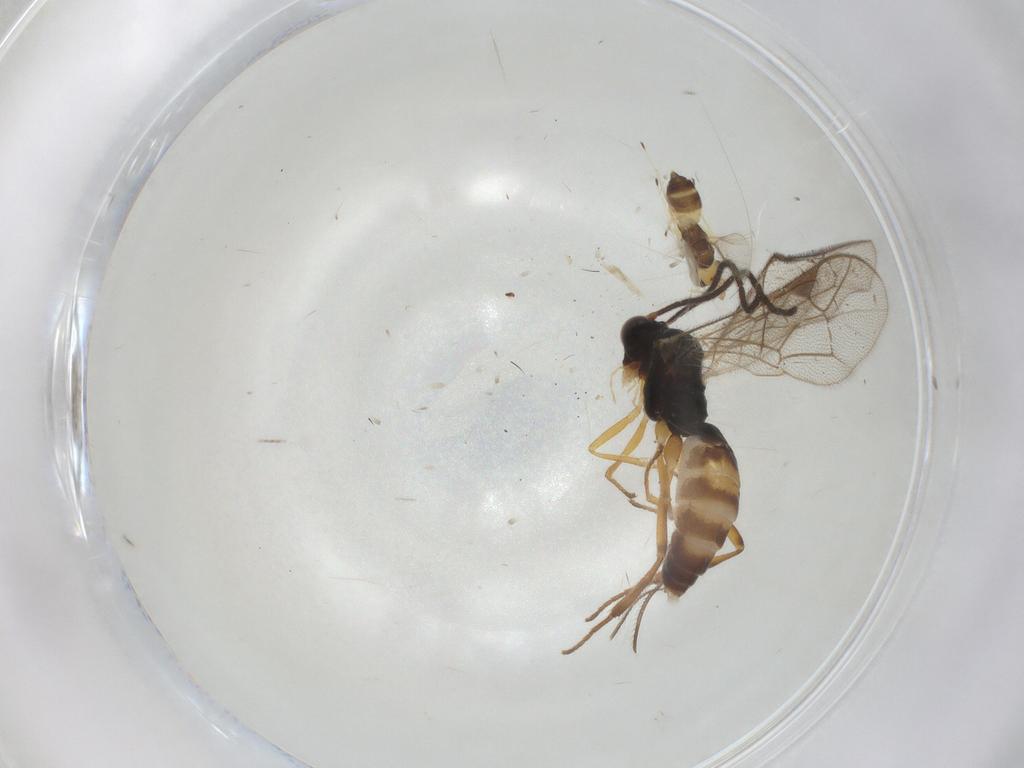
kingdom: Animalia
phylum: Arthropoda
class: Insecta
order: Hymenoptera
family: Ichneumonidae
